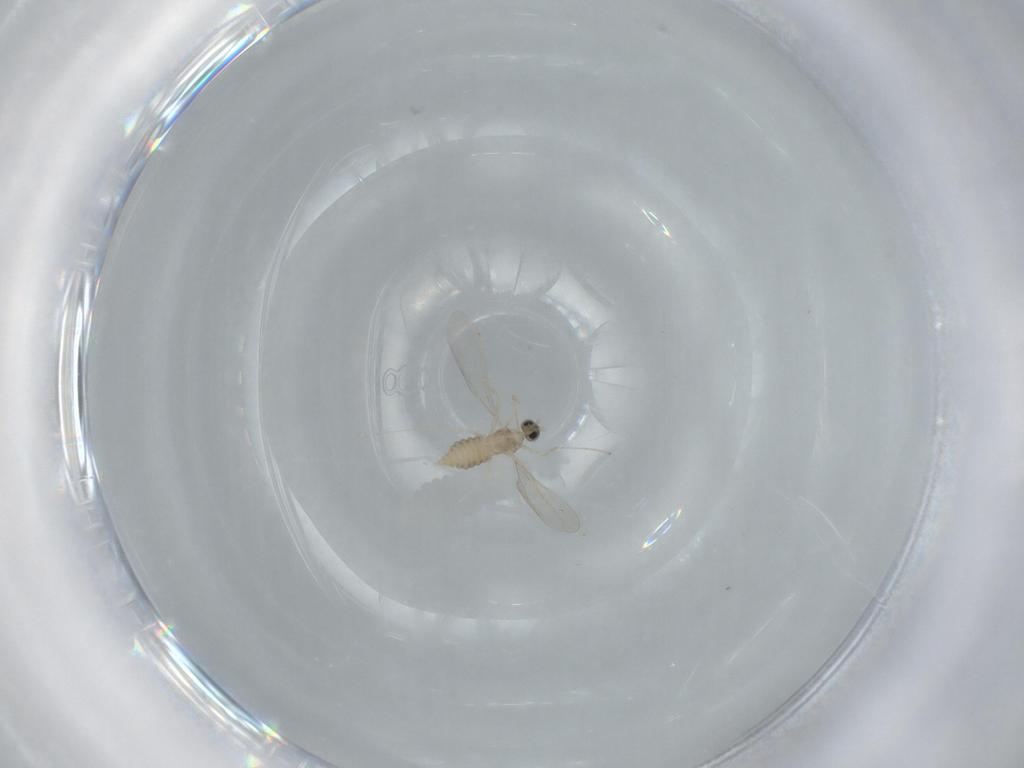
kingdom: Animalia
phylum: Arthropoda
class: Insecta
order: Diptera
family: Cecidomyiidae
